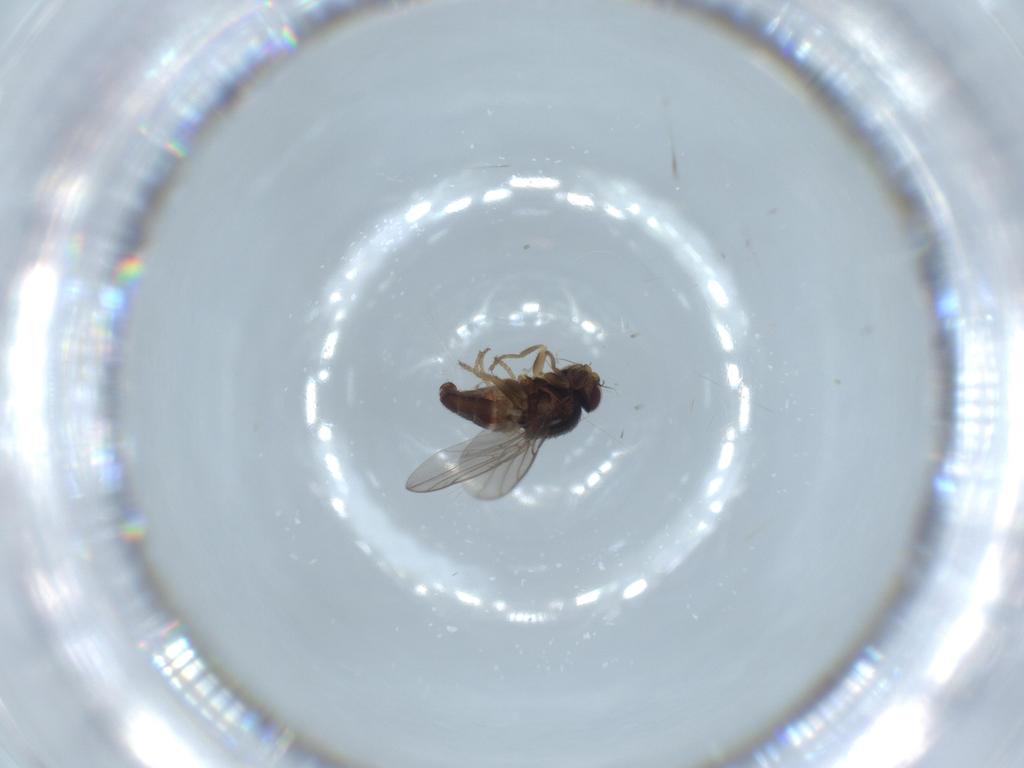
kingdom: Animalia
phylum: Arthropoda
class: Insecta
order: Diptera
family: Chloropidae
